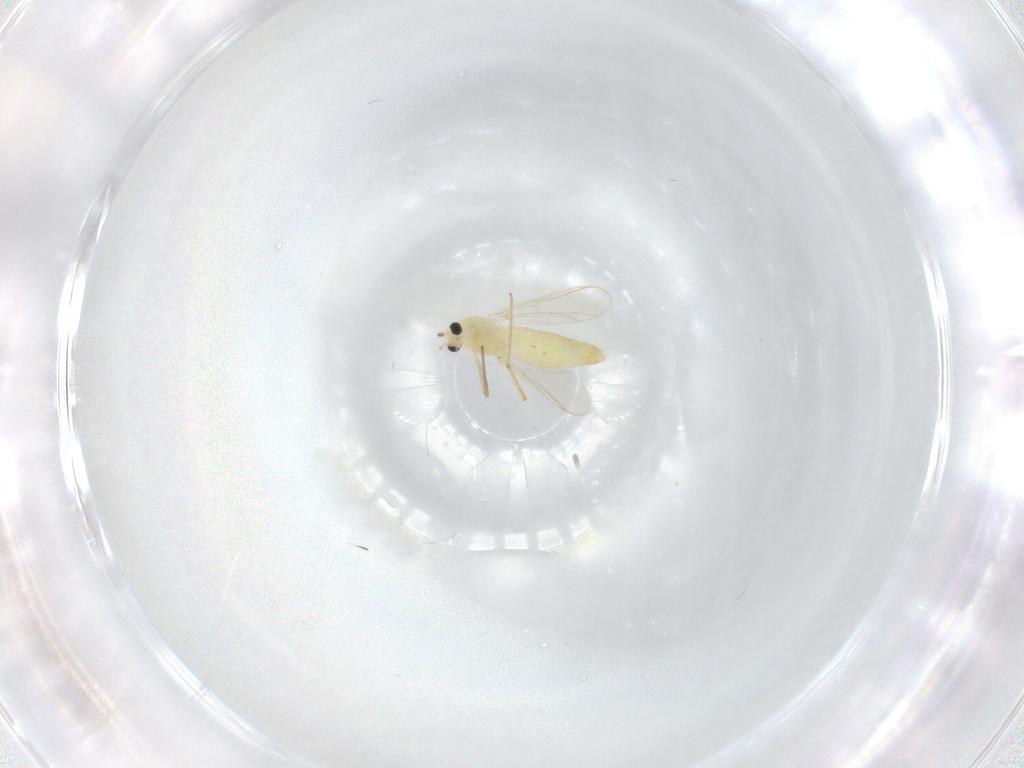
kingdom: Animalia
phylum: Arthropoda
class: Insecta
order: Diptera
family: Chironomidae
